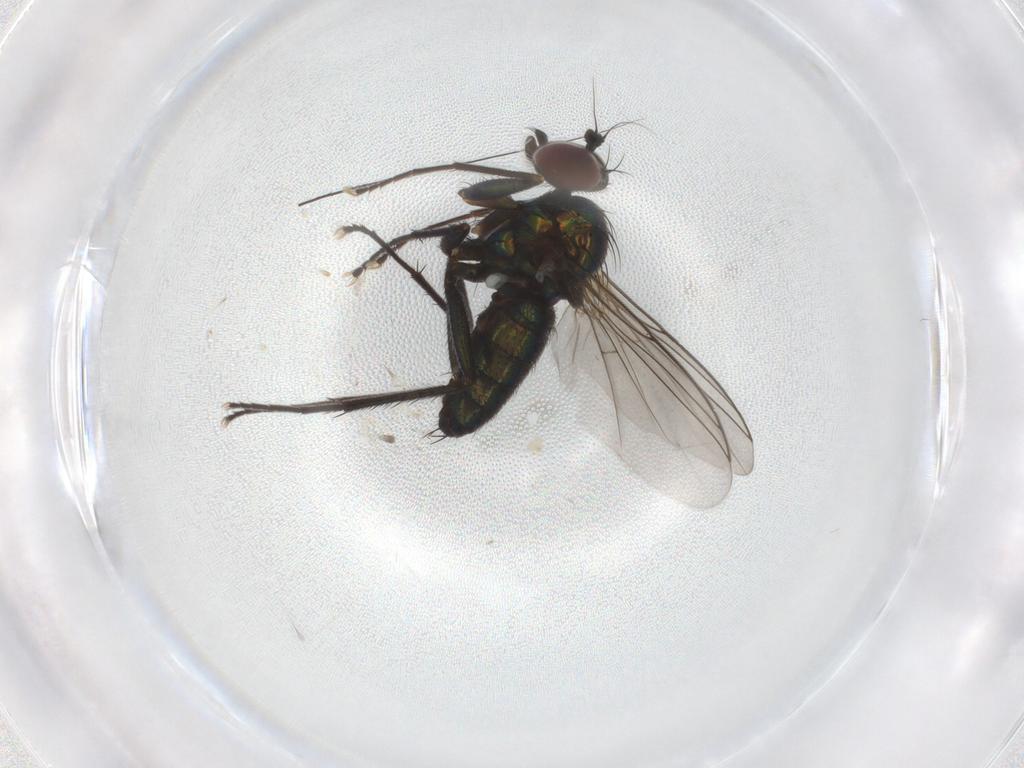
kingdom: Animalia
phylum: Arthropoda
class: Insecta
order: Diptera
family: Dolichopodidae
